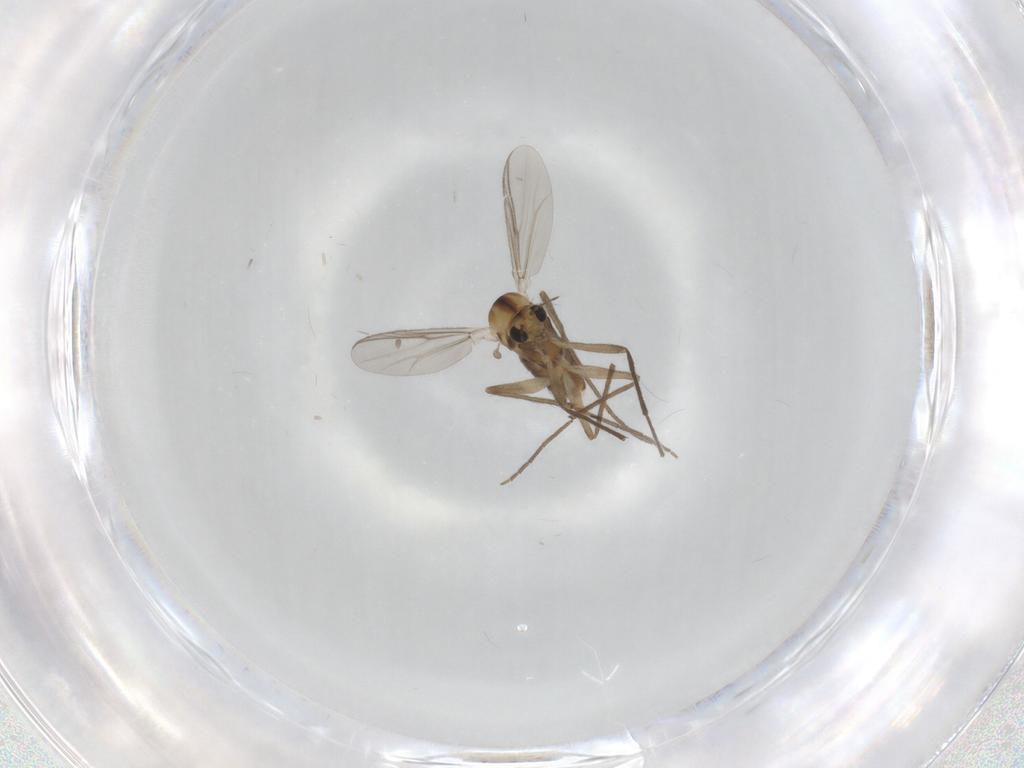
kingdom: Animalia
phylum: Arthropoda
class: Insecta
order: Diptera
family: Chironomidae
